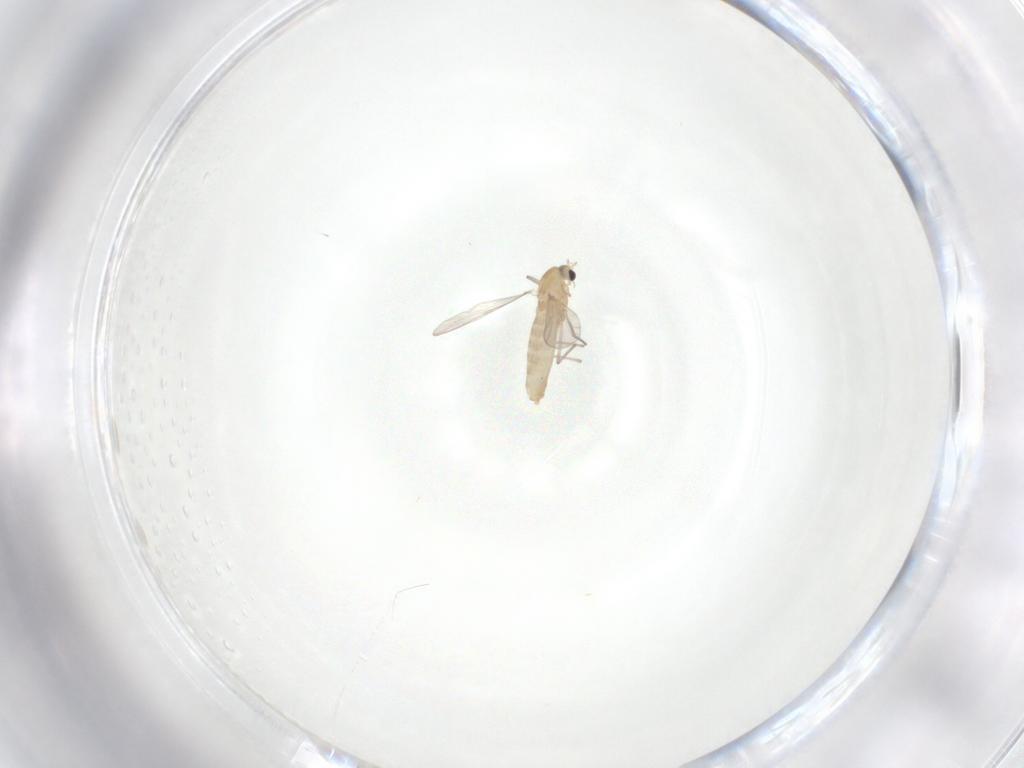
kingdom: Animalia
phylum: Arthropoda
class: Insecta
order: Diptera
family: Chironomidae
